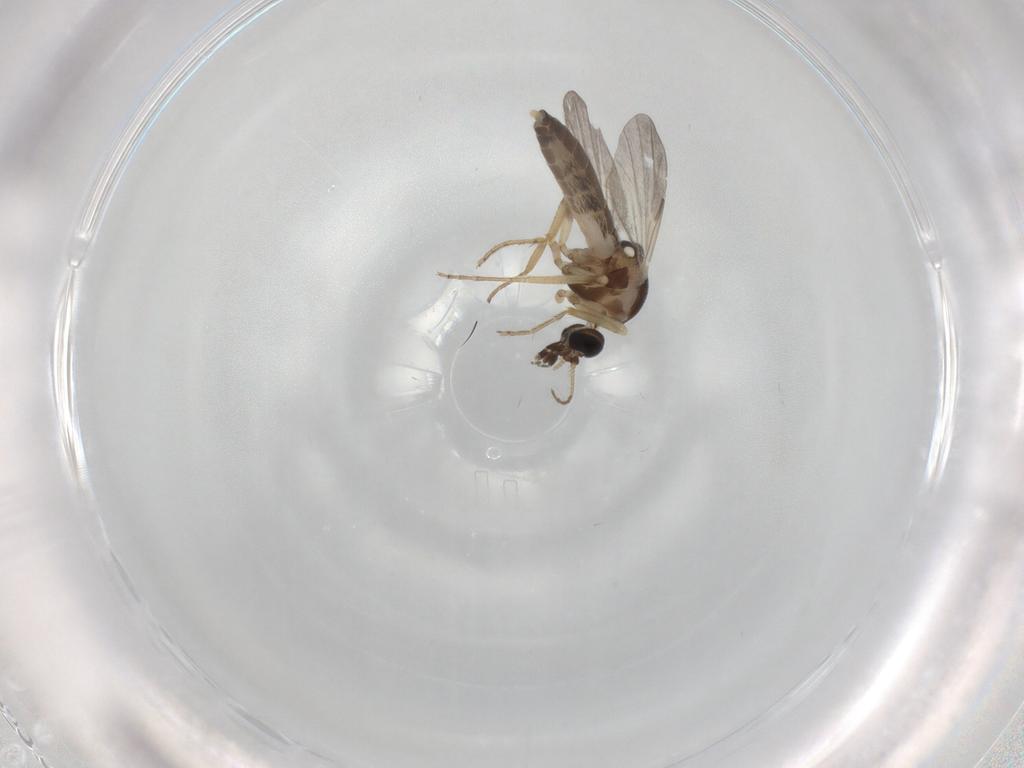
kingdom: Animalia
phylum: Arthropoda
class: Insecta
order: Diptera
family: Ceratopogonidae
